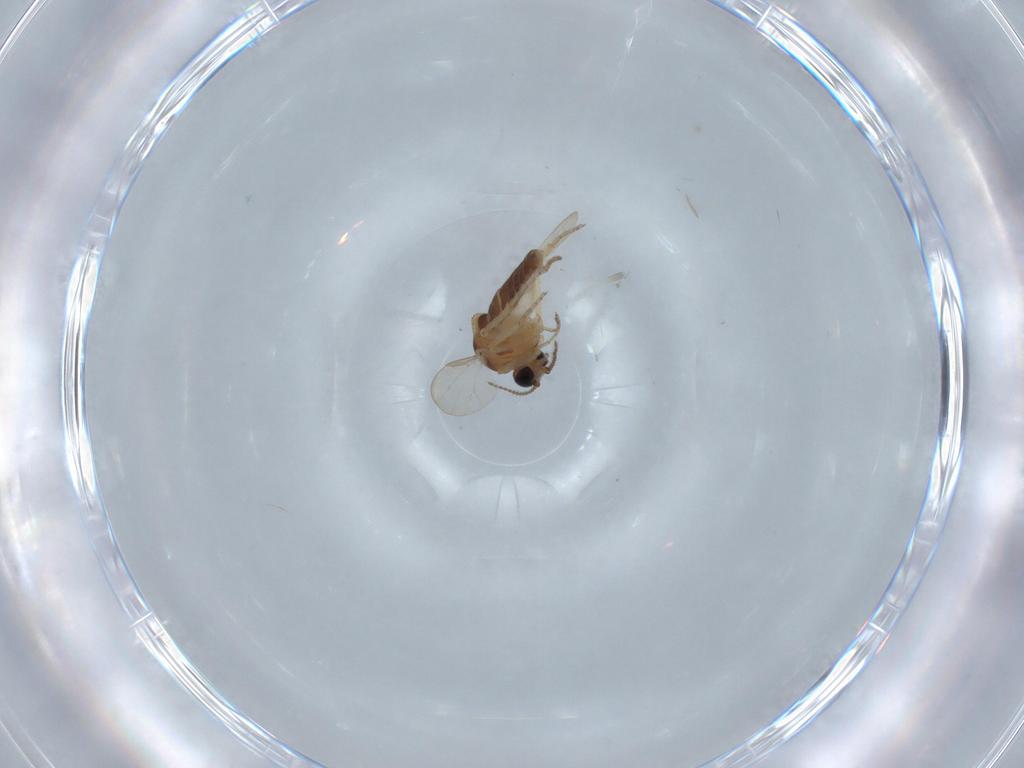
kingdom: Animalia
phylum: Arthropoda
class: Insecta
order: Diptera
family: Ceratopogonidae
